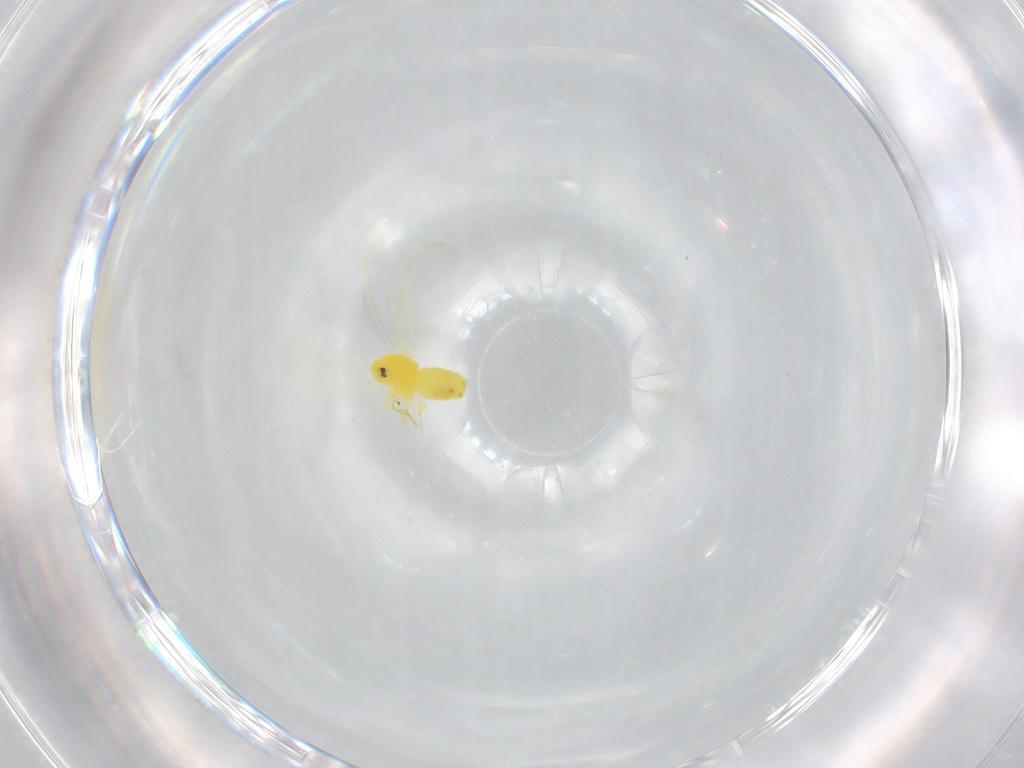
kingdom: Animalia
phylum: Arthropoda
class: Insecta
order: Hemiptera
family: Aleyrodidae
